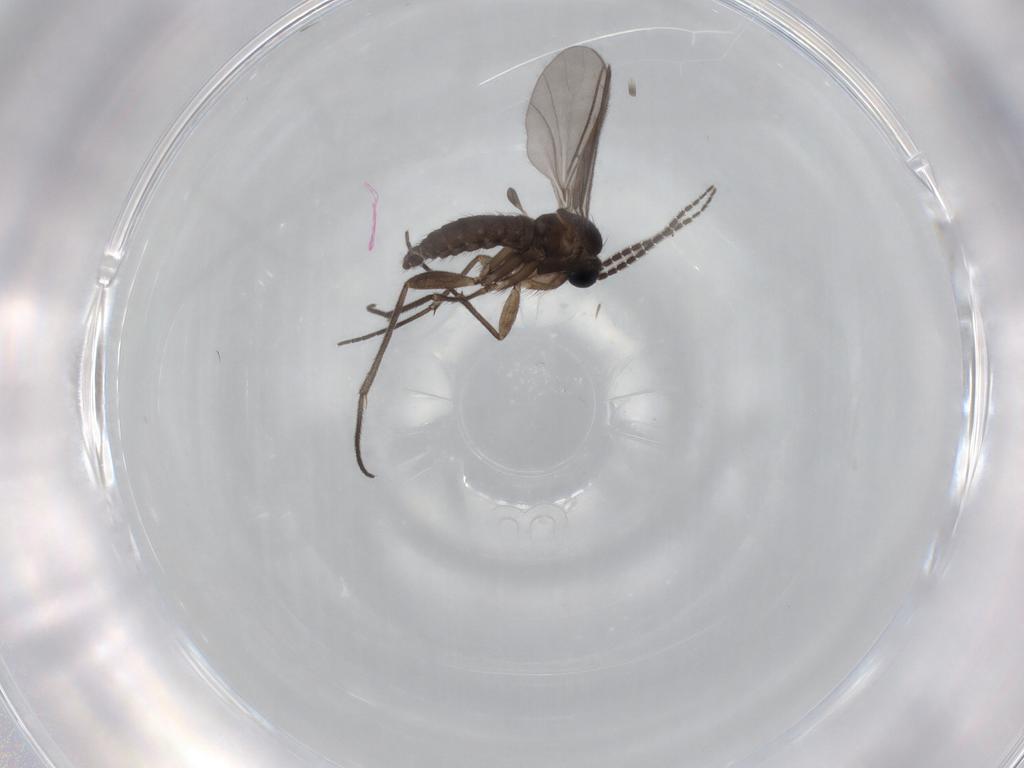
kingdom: Animalia
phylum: Arthropoda
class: Insecta
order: Diptera
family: Sciaridae
